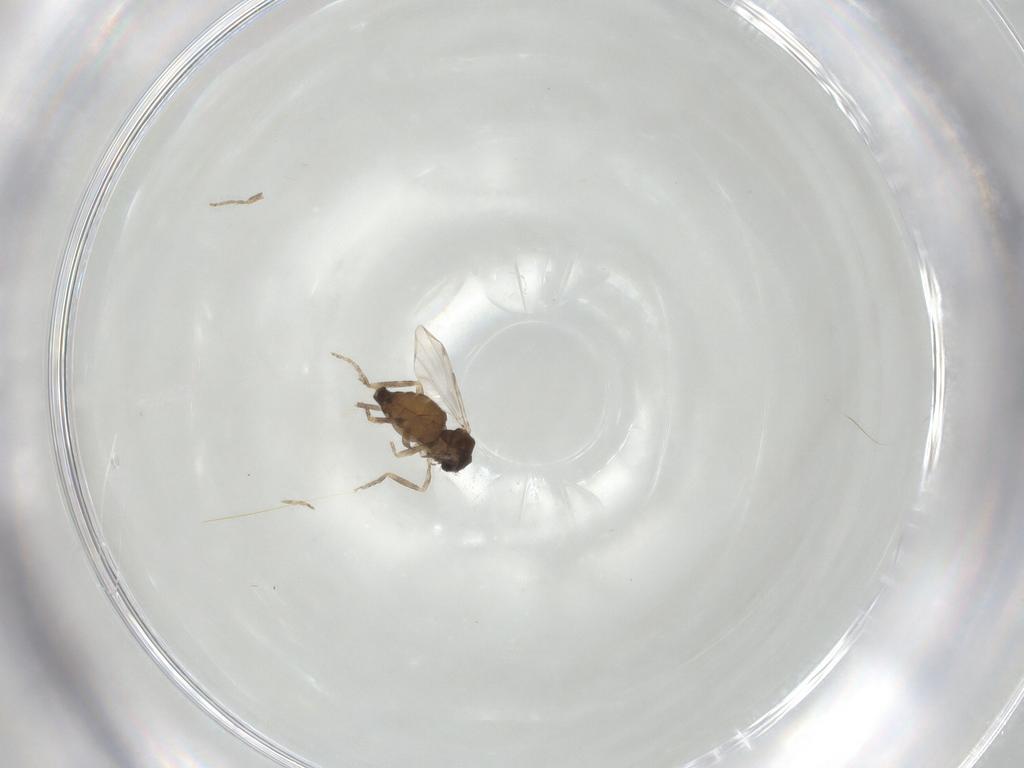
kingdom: Animalia
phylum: Arthropoda
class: Insecta
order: Diptera
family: Ceratopogonidae
